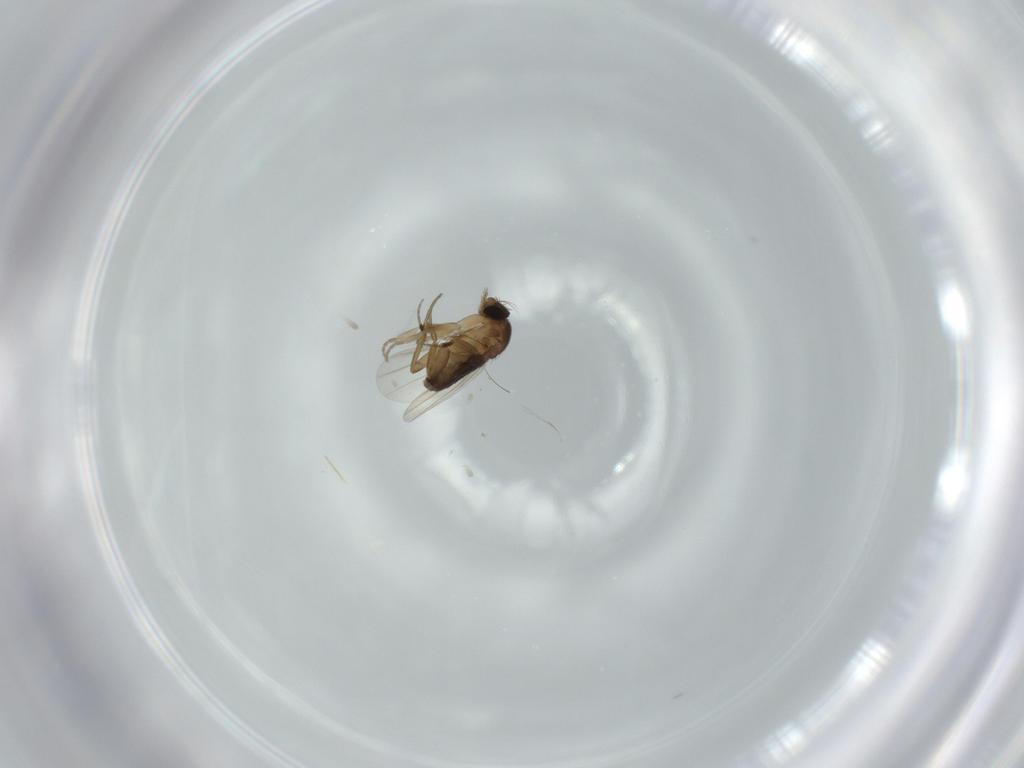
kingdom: Animalia
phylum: Arthropoda
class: Insecta
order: Diptera
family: Phoridae
